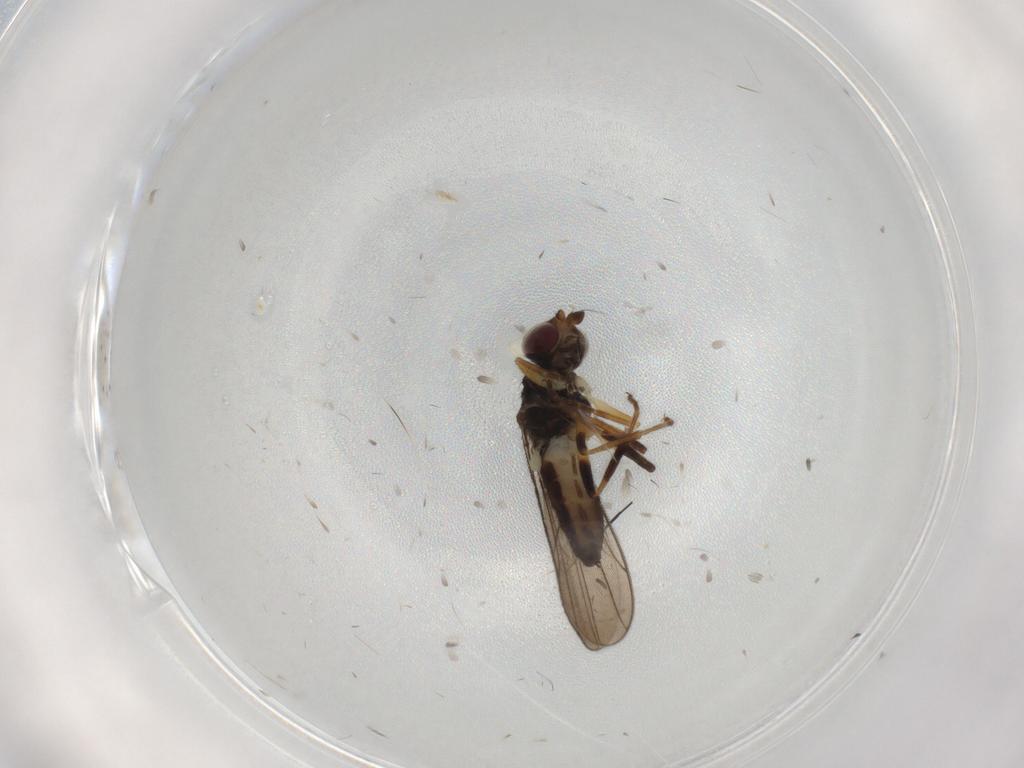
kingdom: Animalia
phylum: Arthropoda
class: Insecta
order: Diptera
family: Chloropidae
